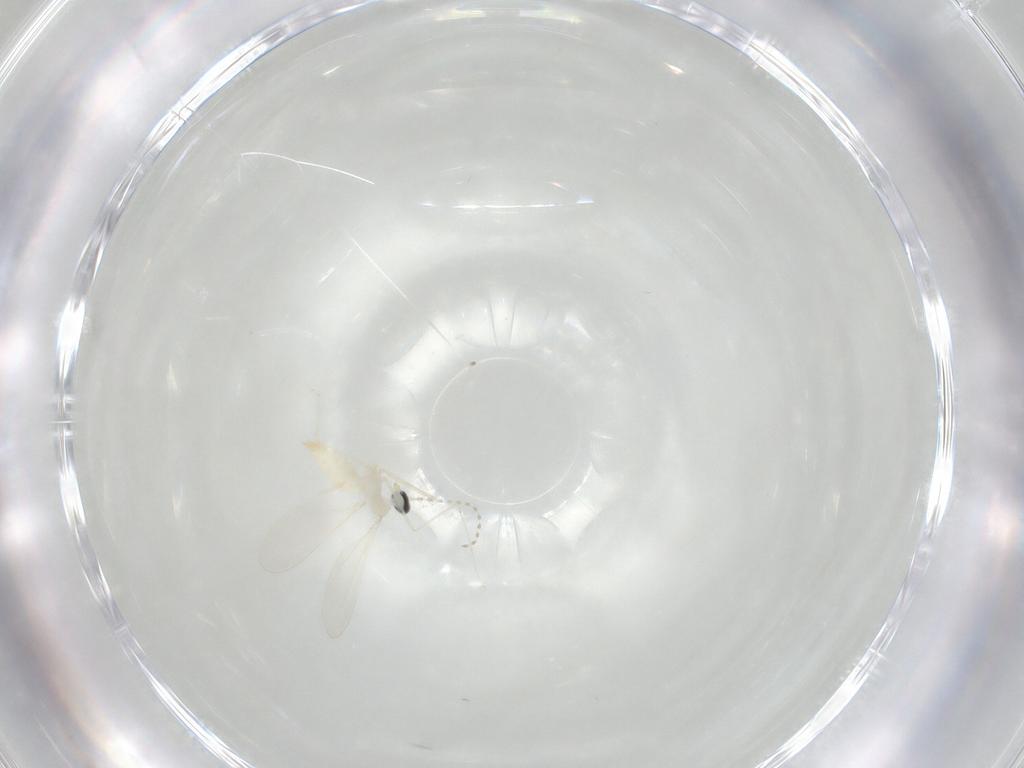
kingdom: Animalia
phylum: Arthropoda
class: Insecta
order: Diptera
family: Cecidomyiidae
